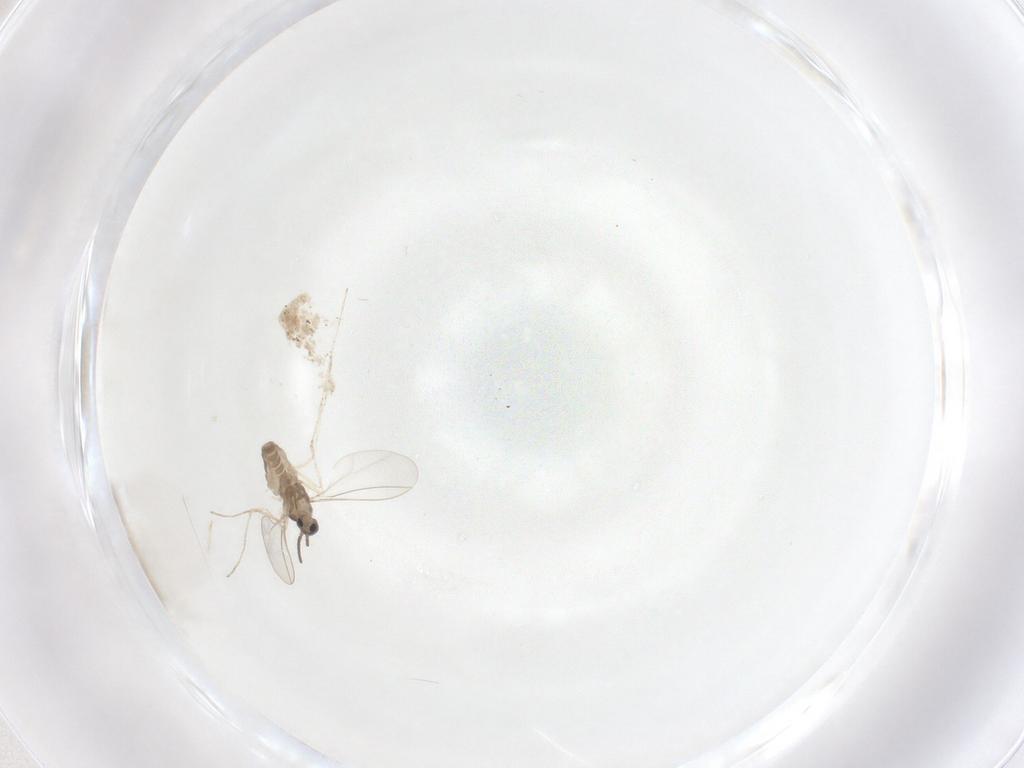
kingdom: Animalia
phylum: Arthropoda
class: Insecta
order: Diptera
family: Cecidomyiidae
